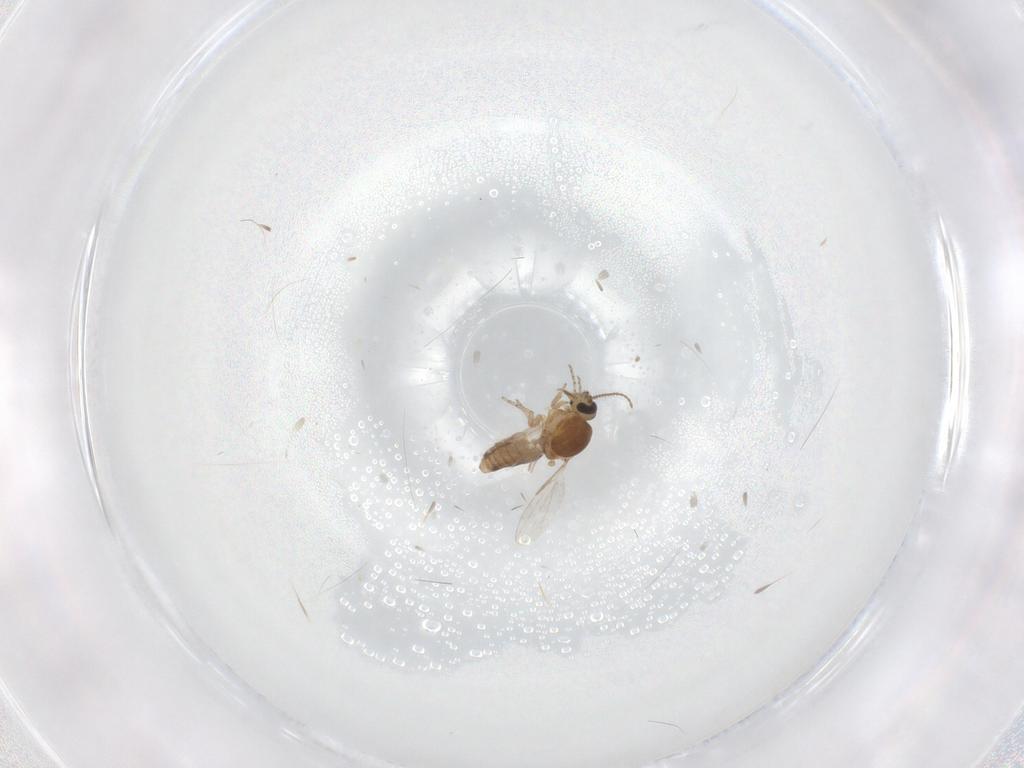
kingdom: Animalia
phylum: Arthropoda
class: Insecta
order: Diptera
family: Ceratopogonidae
